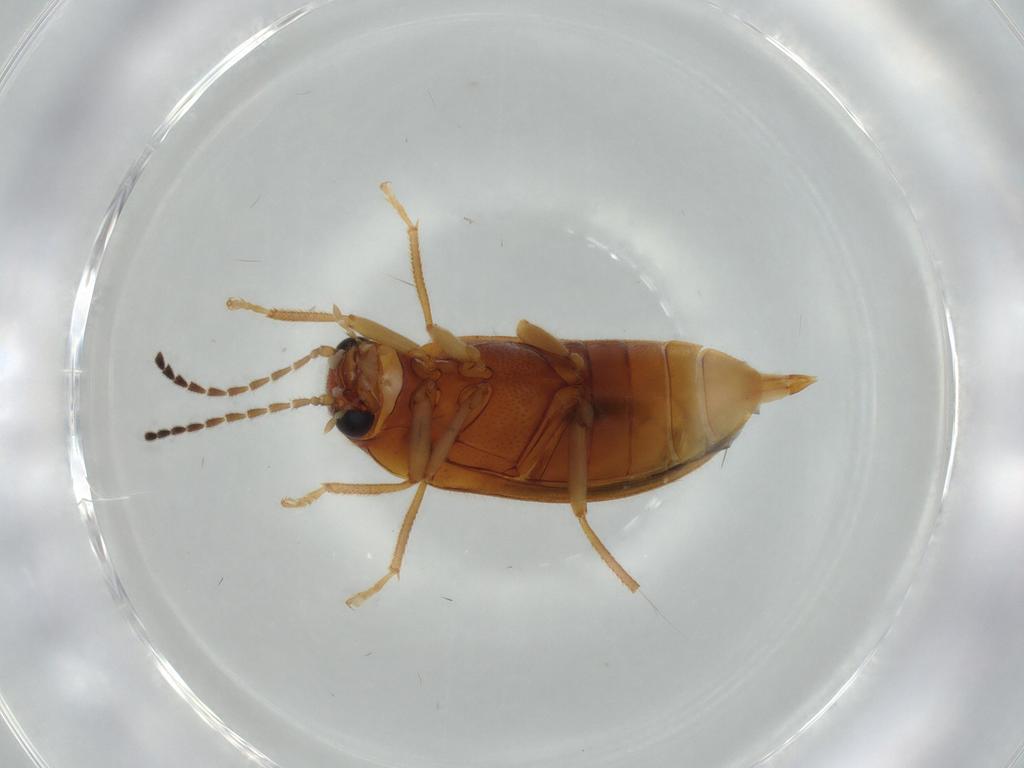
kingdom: Animalia
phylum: Arthropoda
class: Insecta
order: Coleoptera
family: Ptilodactylidae
